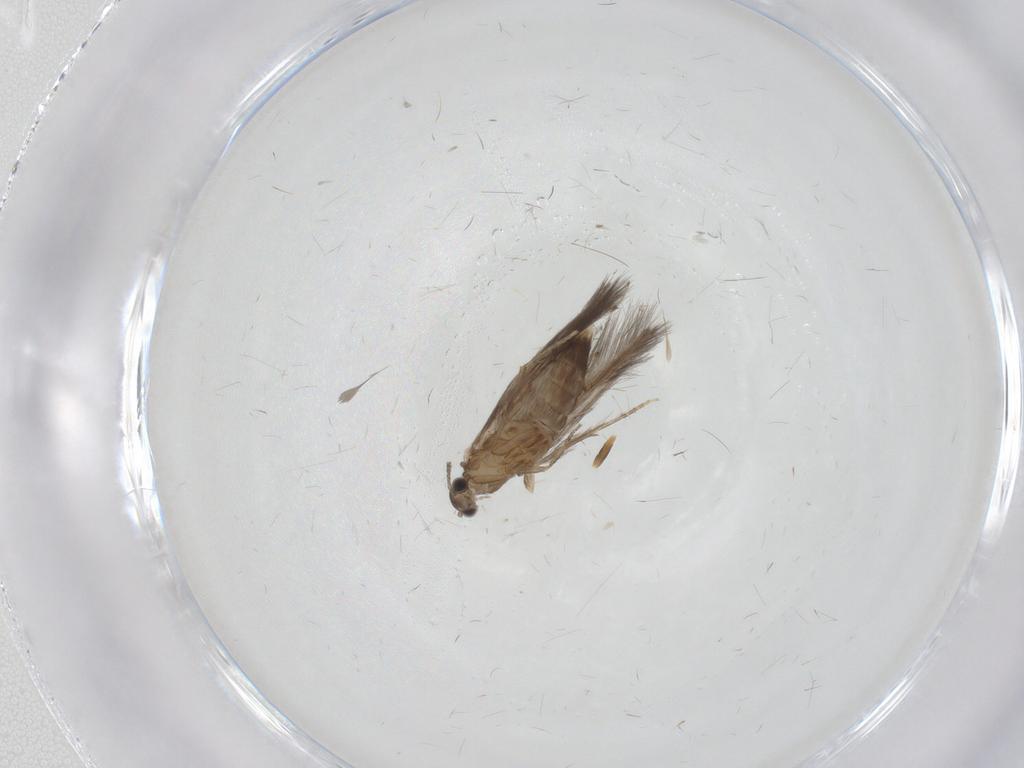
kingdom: Animalia
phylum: Arthropoda
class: Insecta
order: Trichoptera
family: Hydroptilidae
